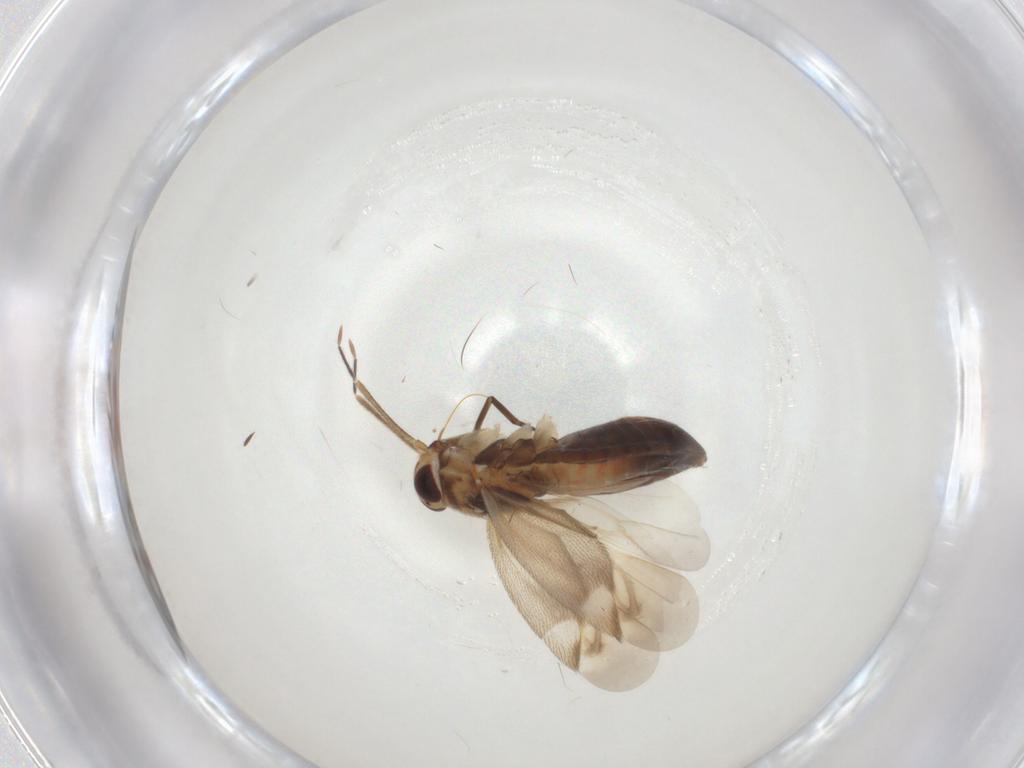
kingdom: Animalia
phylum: Arthropoda
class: Insecta
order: Hemiptera
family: Miridae
